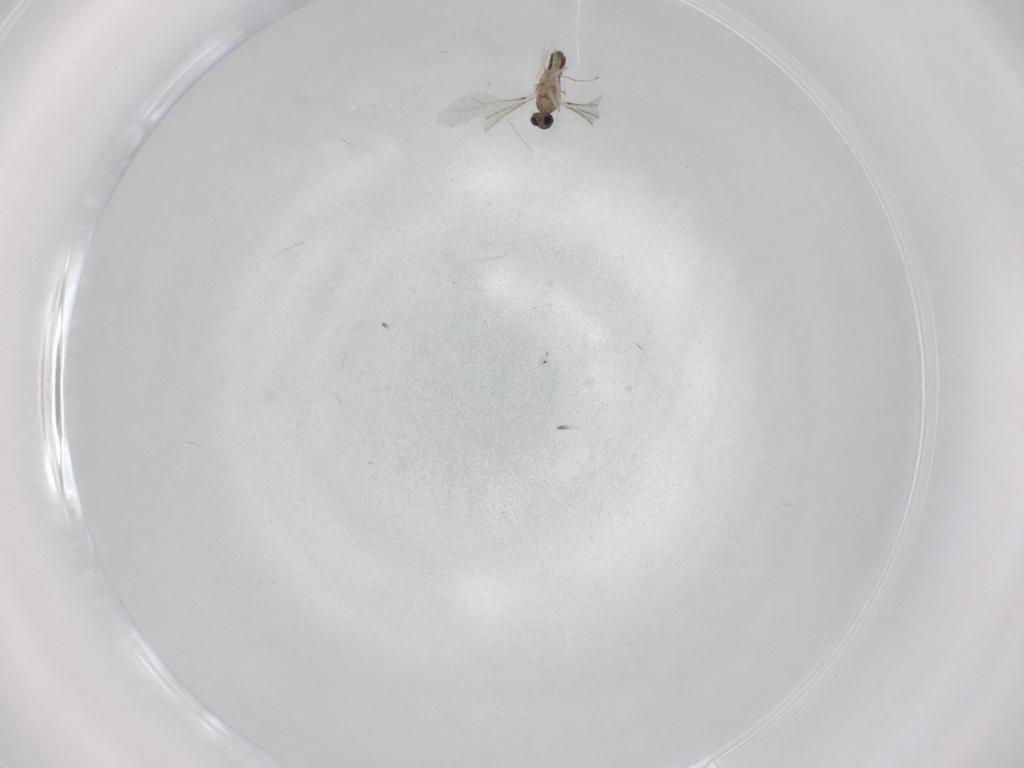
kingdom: Animalia
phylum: Arthropoda
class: Insecta
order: Diptera
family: Cecidomyiidae
